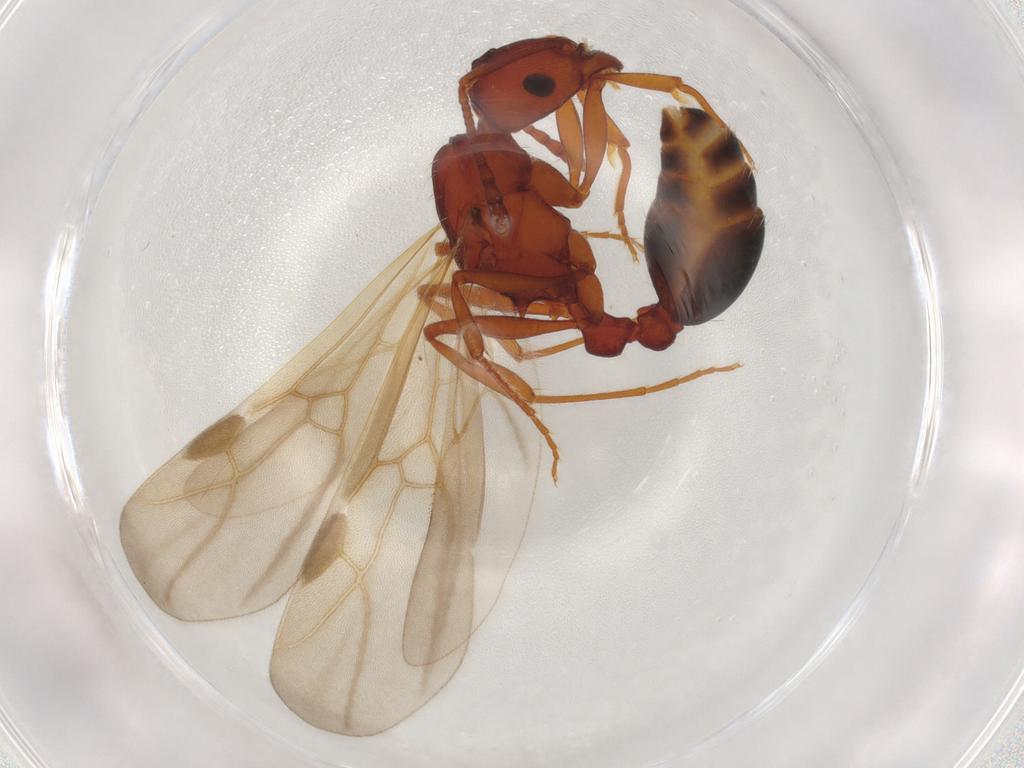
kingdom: Animalia
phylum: Arthropoda
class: Insecta
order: Hymenoptera
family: Formicidae
